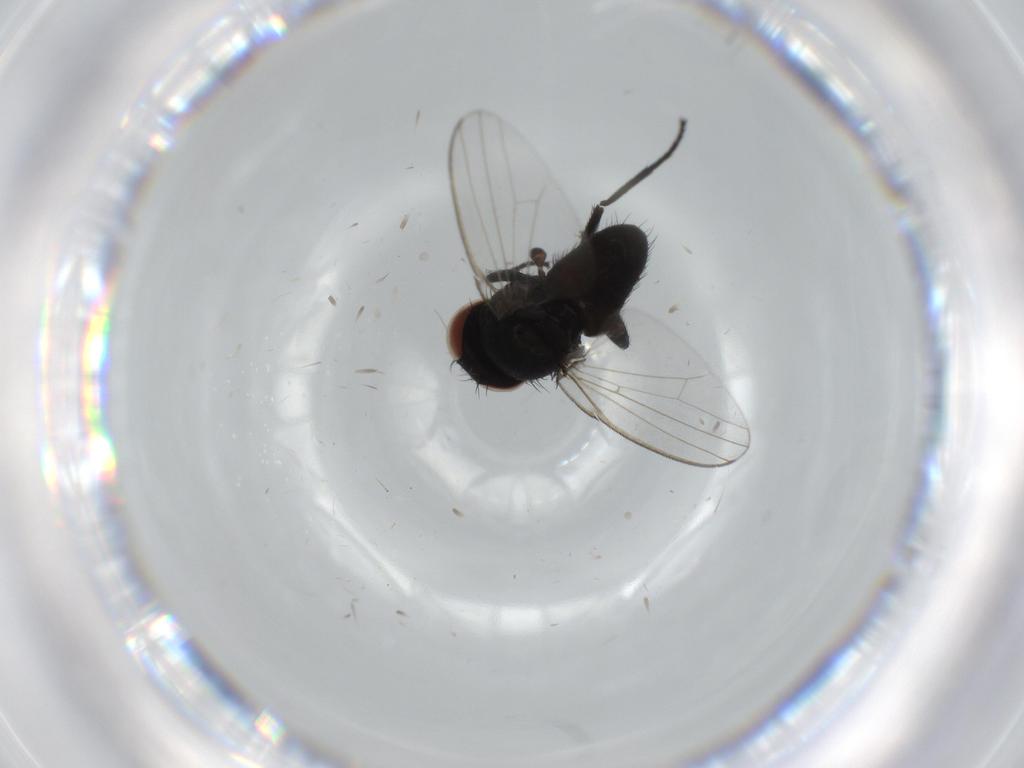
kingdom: Animalia
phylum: Arthropoda
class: Insecta
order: Diptera
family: Milichiidae
